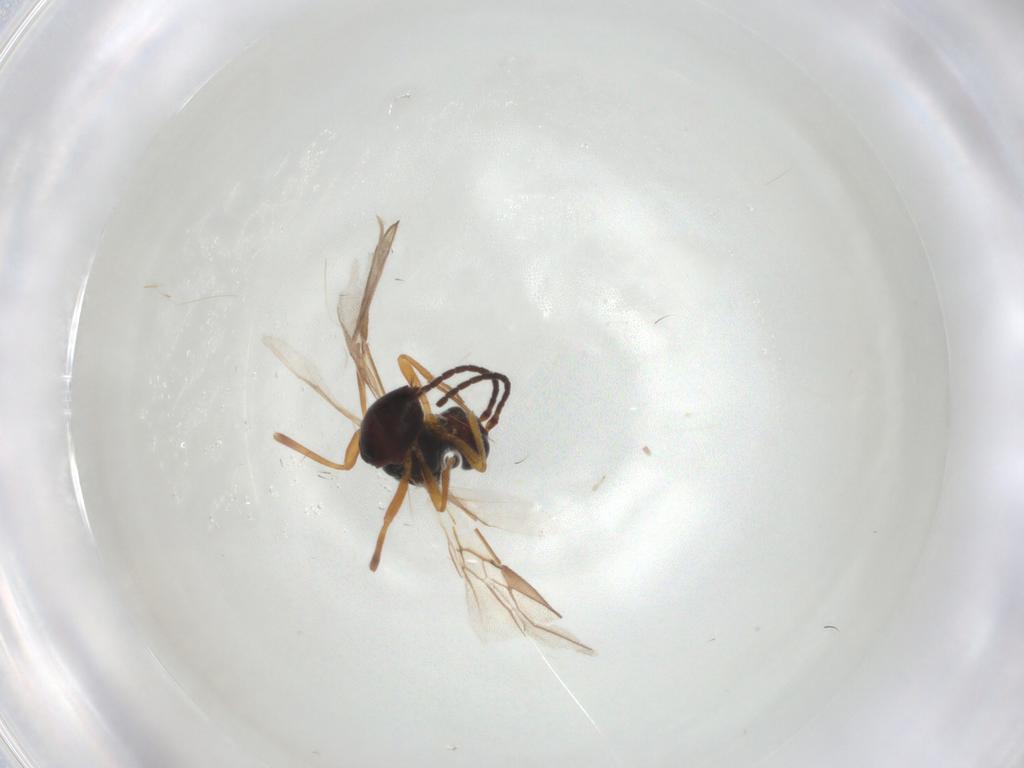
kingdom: Animalia
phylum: Arthropoda
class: Insecta
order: Hymenoptera
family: Braconidae
